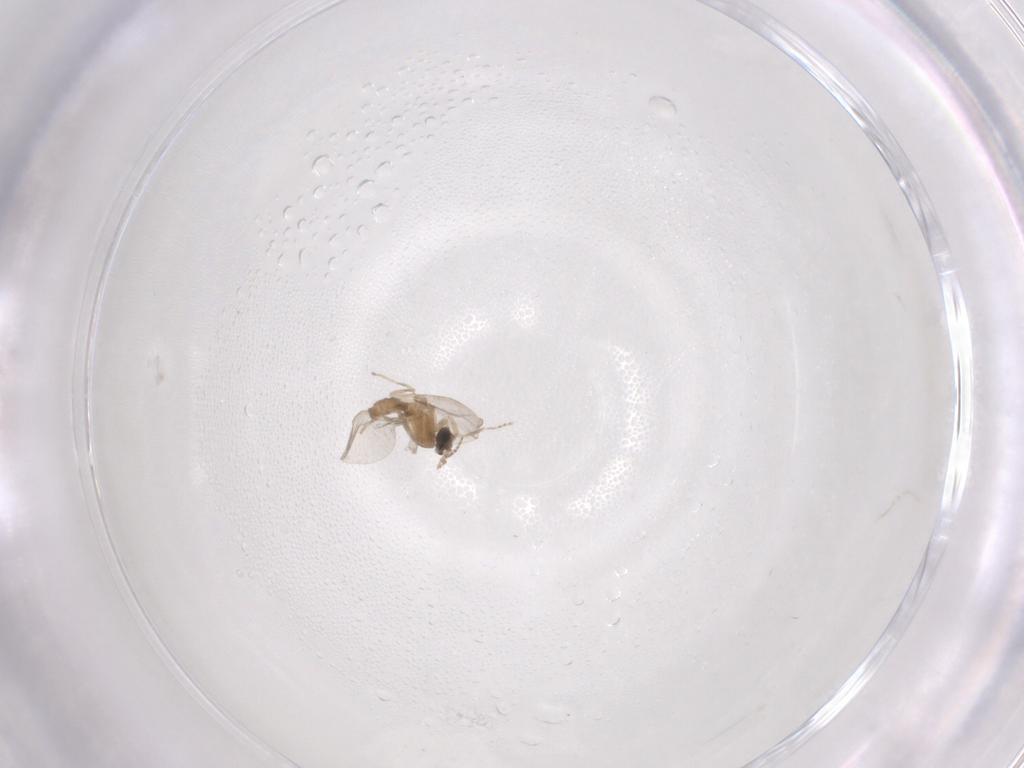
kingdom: Animalia
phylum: Arthropoda
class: Insecta
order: Diptera
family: Cecidomyiidae
